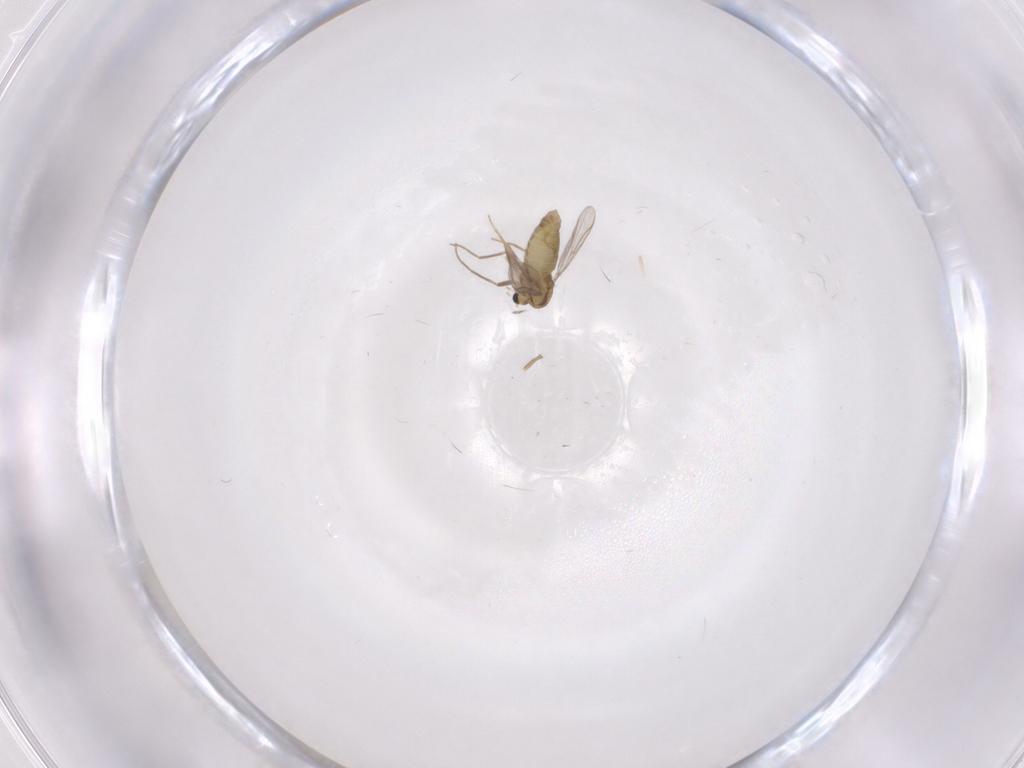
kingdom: Animalia
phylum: Arthropoda
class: Insecta
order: Diptera
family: Chironomidae
